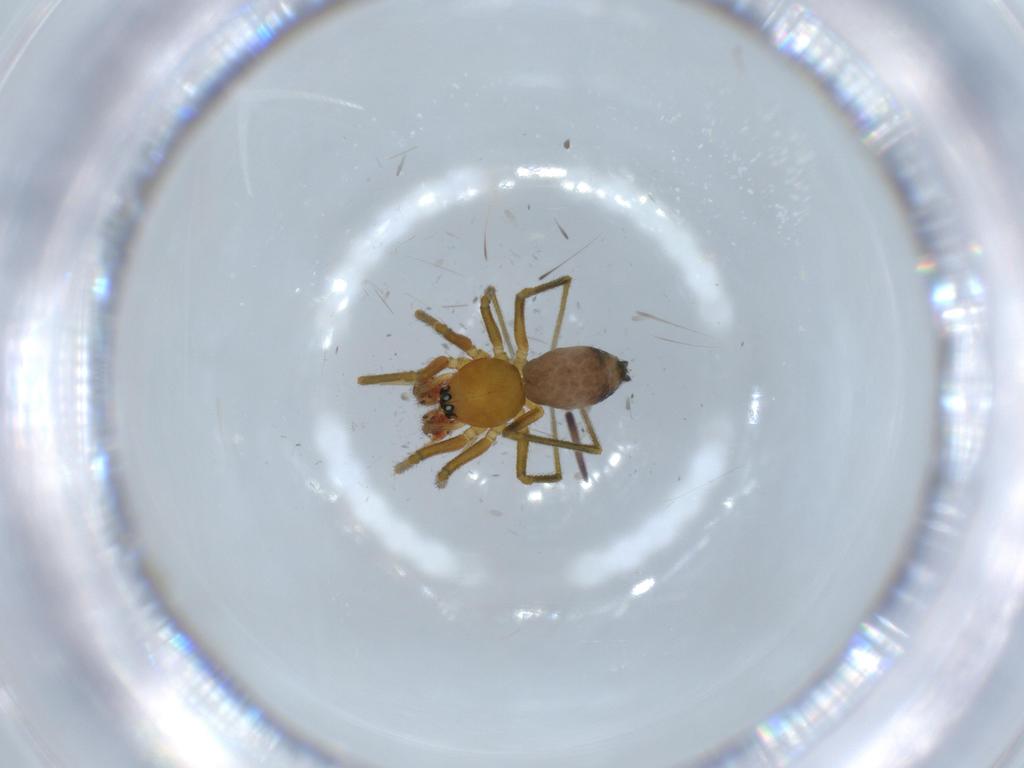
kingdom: Animalia
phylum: Arthropoda
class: Arachnida
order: Araneae
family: Linyphiidae
